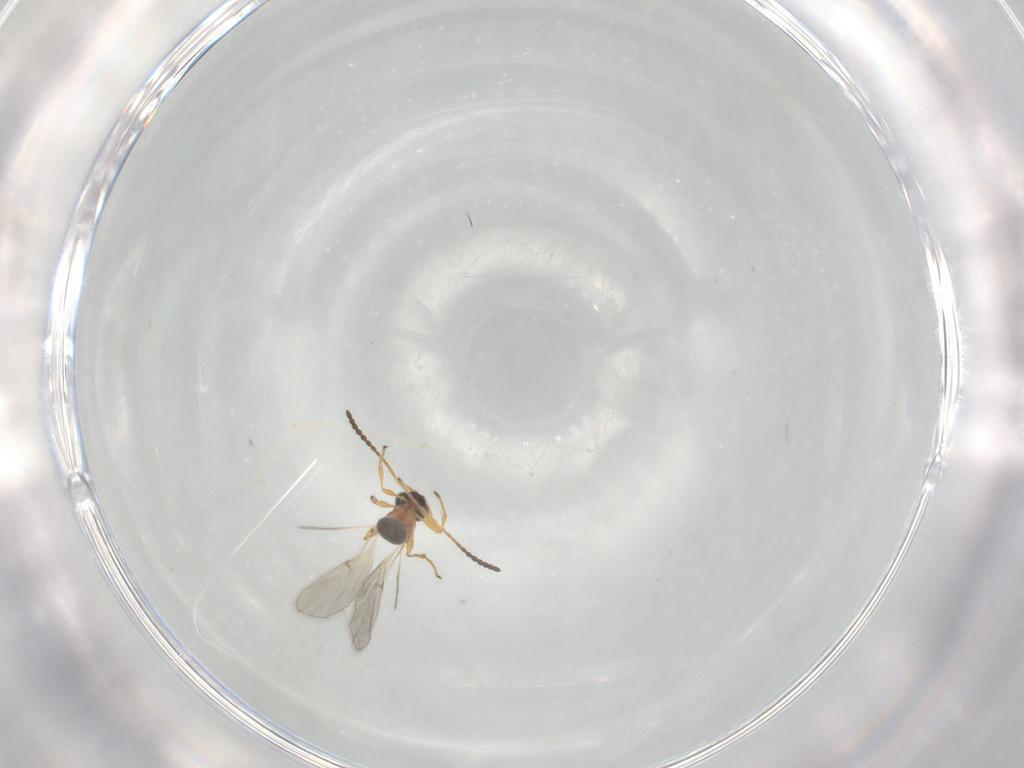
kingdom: Animalia
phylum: Arthropoda
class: Insecta
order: Hymenoptera
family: Diapriidae
